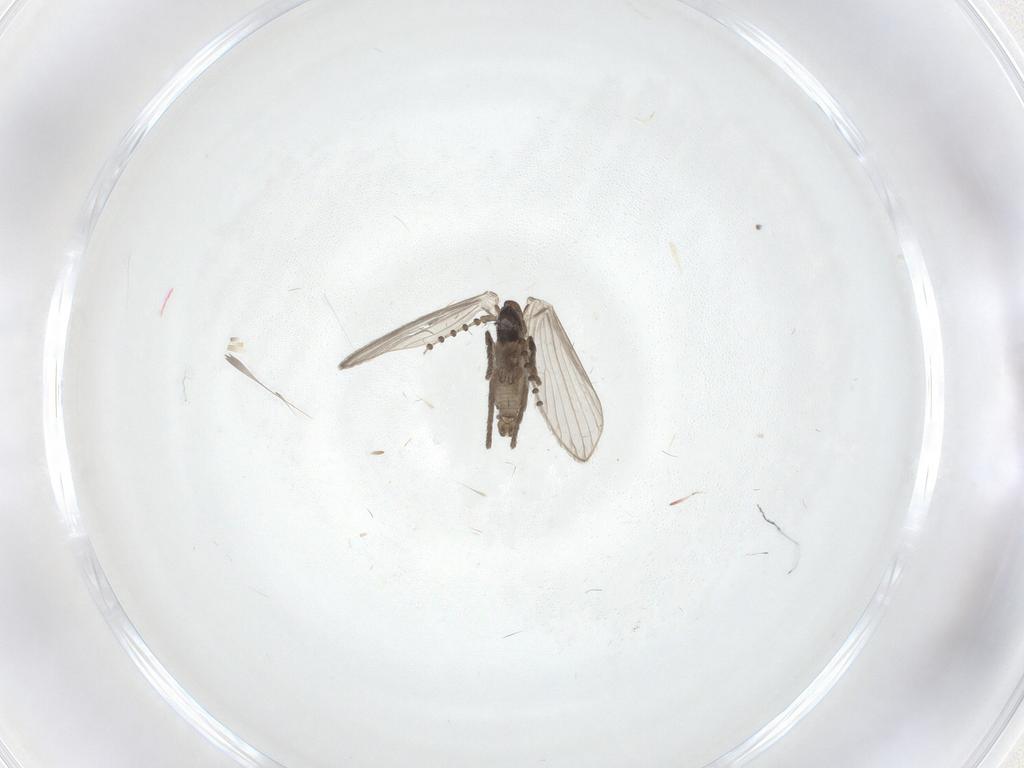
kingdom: Animalia
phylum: Arthropoda
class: Insecta
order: Diptera
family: Psychodidae
